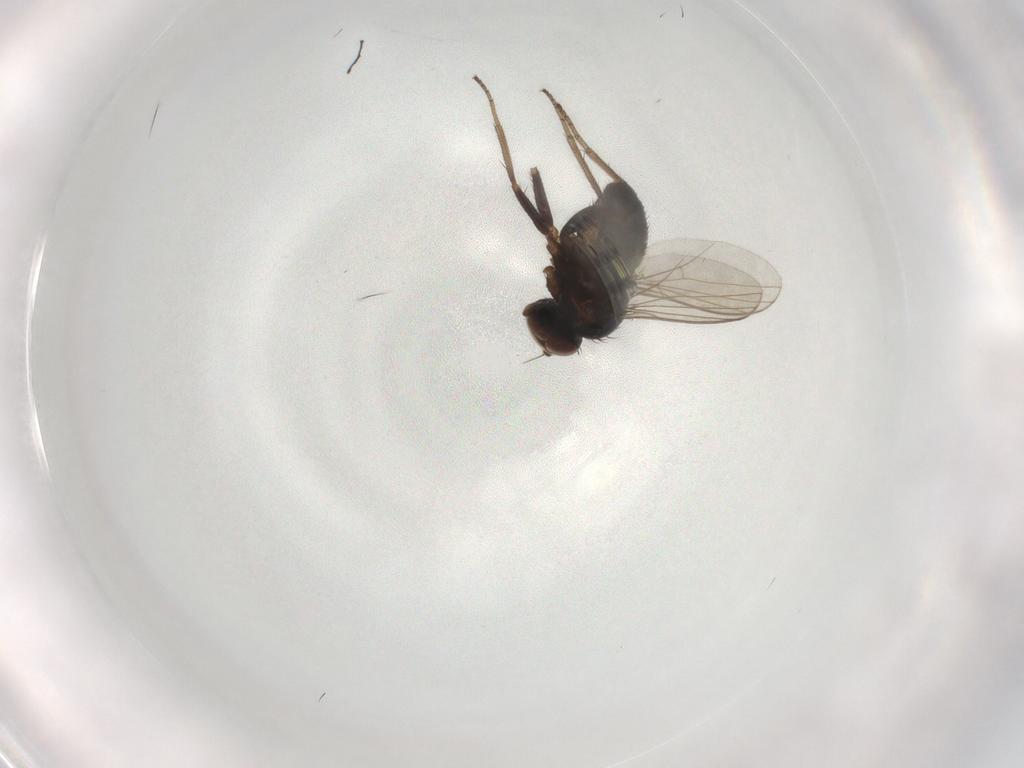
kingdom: Animalia
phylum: Arthropoda
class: Insecta
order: Diptera
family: Dolichopodidae
